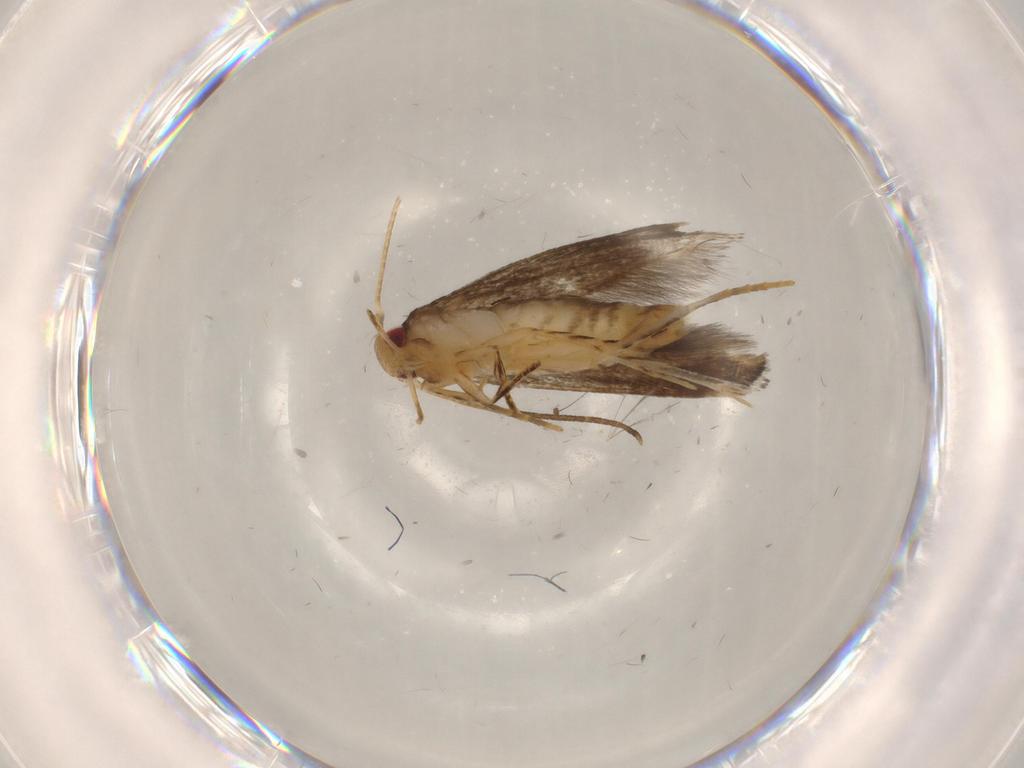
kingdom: Animalia
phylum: Arthropoda
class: Insecta
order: Lepidoptera
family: Momphidae
